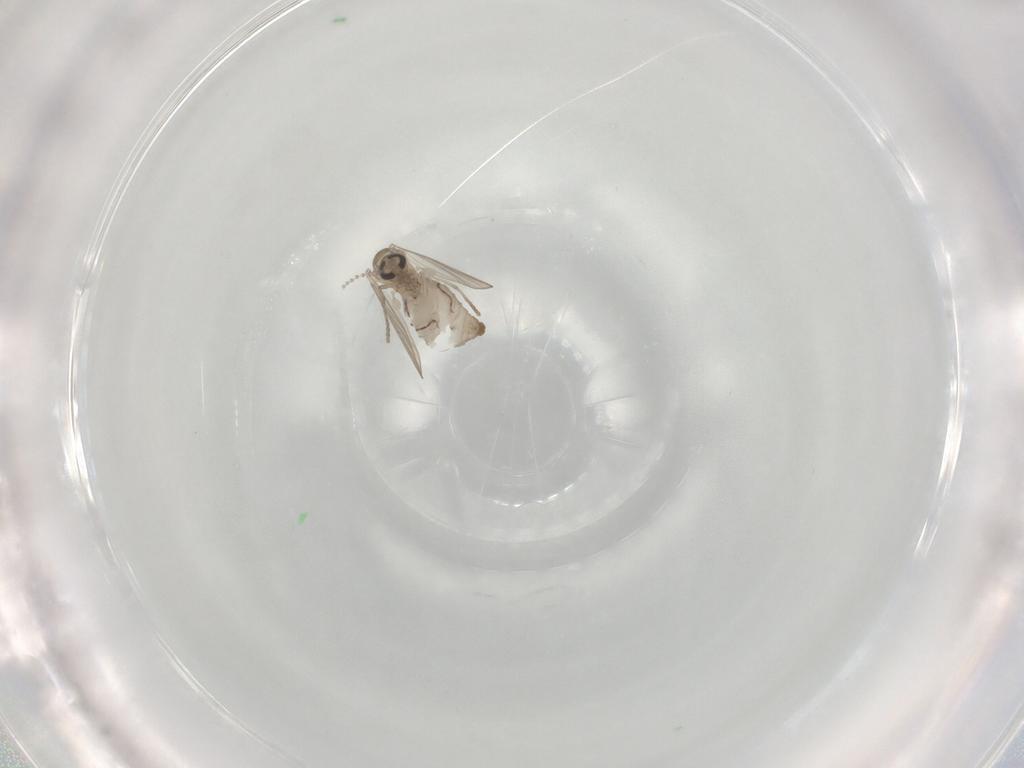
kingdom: Animalia
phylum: Arthropoda
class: Insecta
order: Diptera
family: Psychodidae
